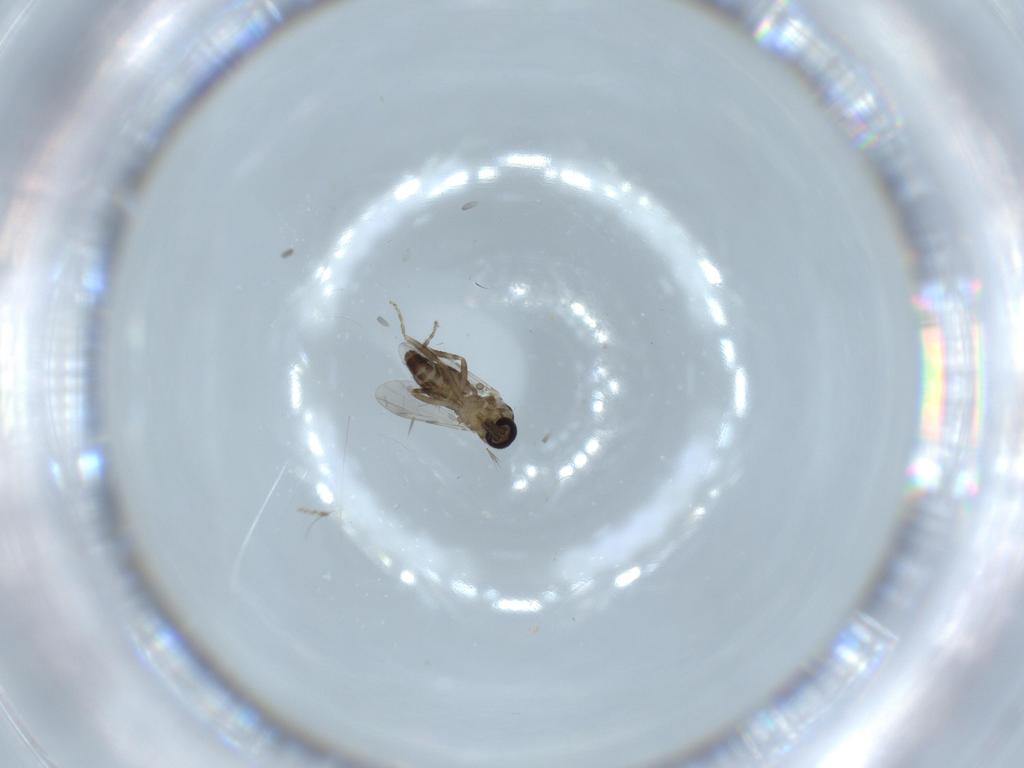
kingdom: Animalia
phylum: Arthropoda
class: Insecta
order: Diptera
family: Ceratopogonidae
